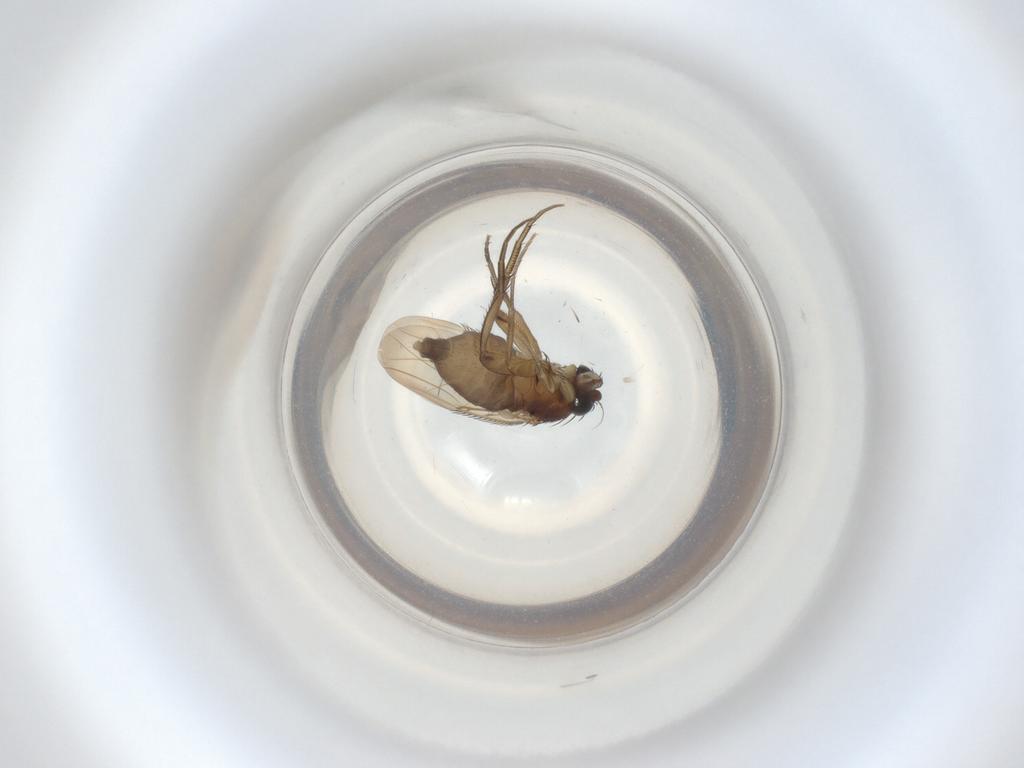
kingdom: Animalia
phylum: Arthropoda
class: Insecta
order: Diptera
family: Phoridae
